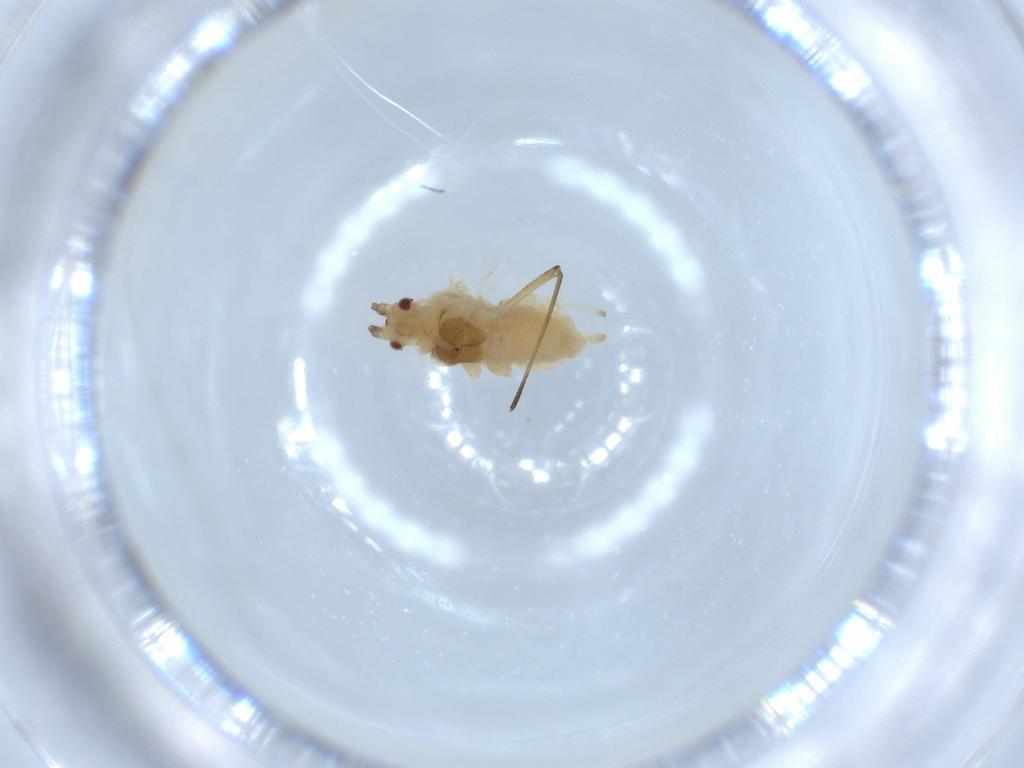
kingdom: Animalia
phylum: Arthropoda
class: Insecta
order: Hemiptera
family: Aphididae
